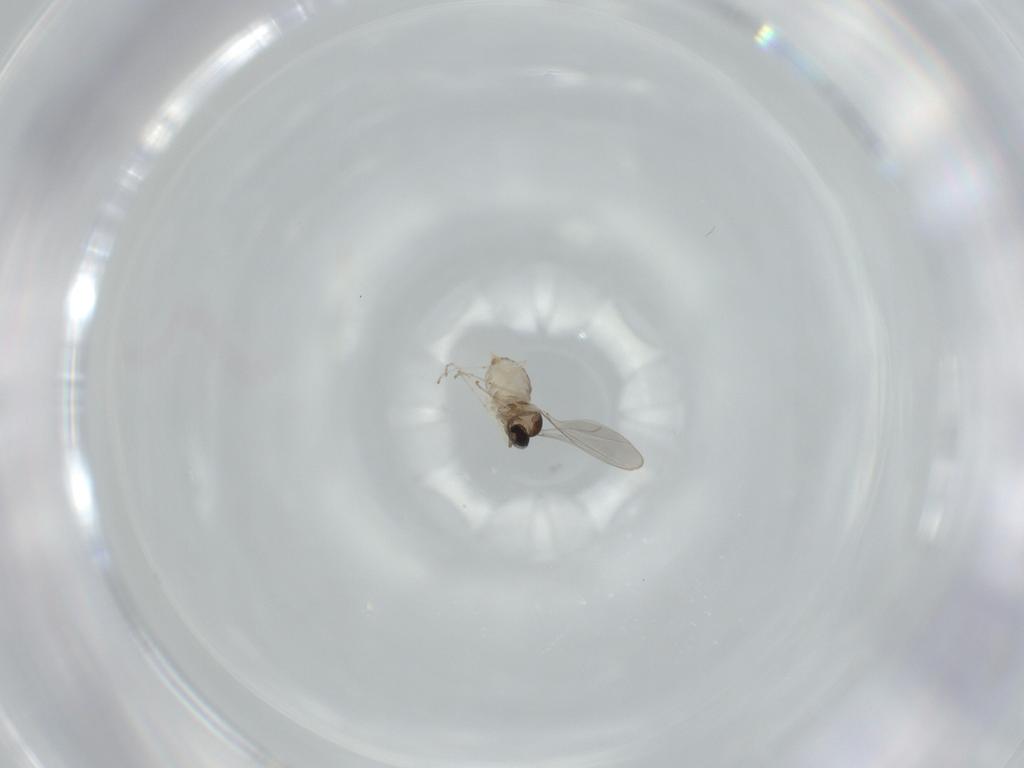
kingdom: Animalia
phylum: Arthropoda
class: Insecta
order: Diptera
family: Cecidomyiidae
